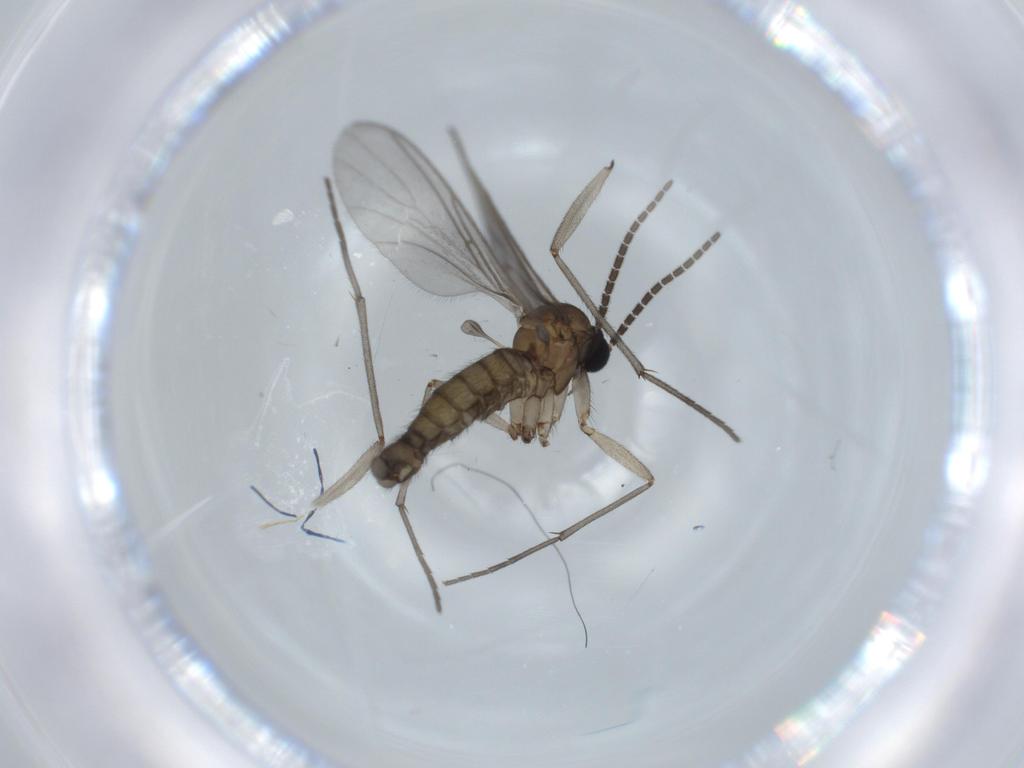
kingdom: Animalia
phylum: Arthropoda
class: Insecta
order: Diptera
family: Sciaridae
